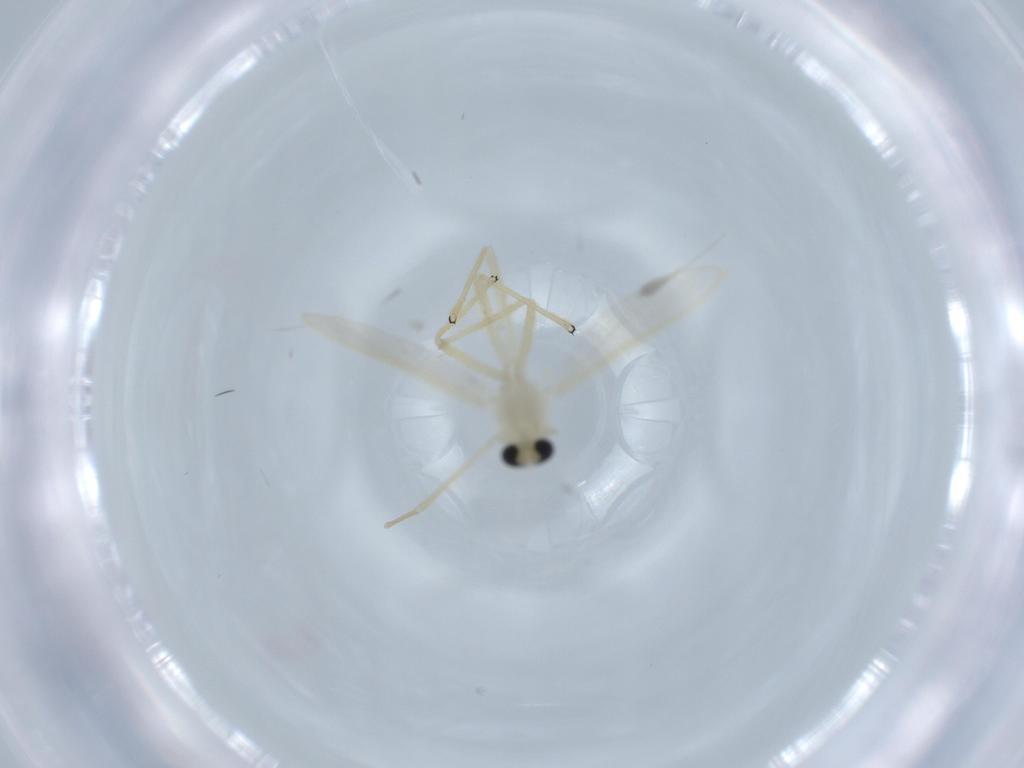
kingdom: Animalia
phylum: Arthropoda
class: Insecta
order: Diptera
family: Chironomidae
